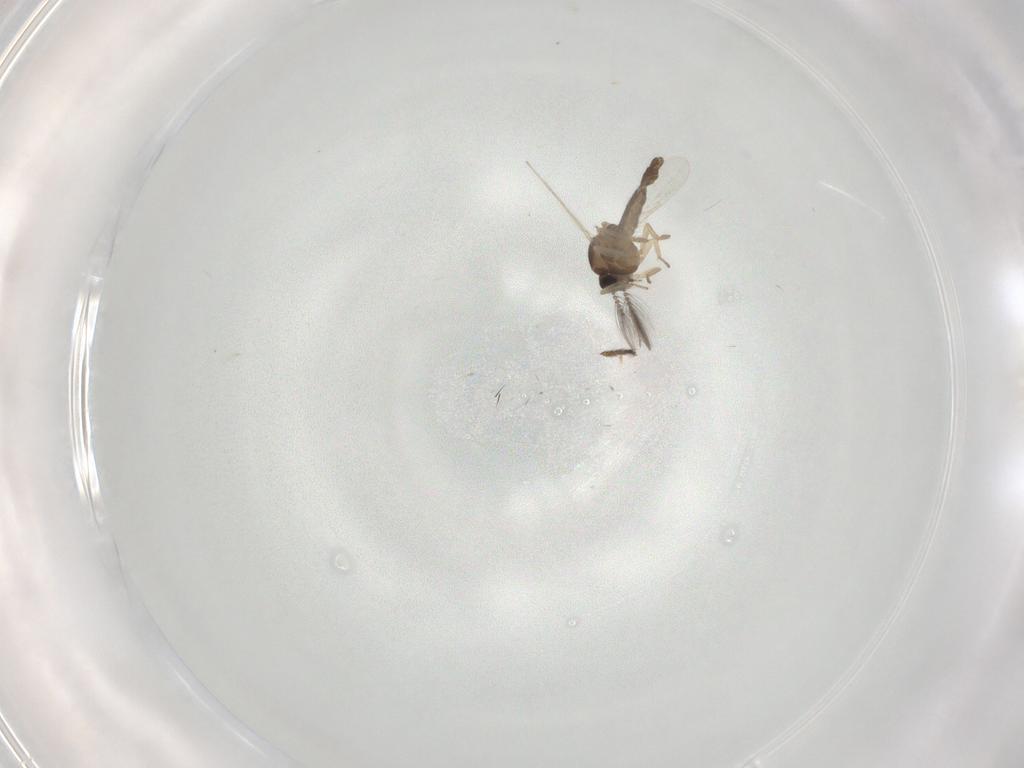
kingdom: Animalia
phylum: Arthropoda
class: Insecta
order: Diptera
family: Ceratopogonidae
